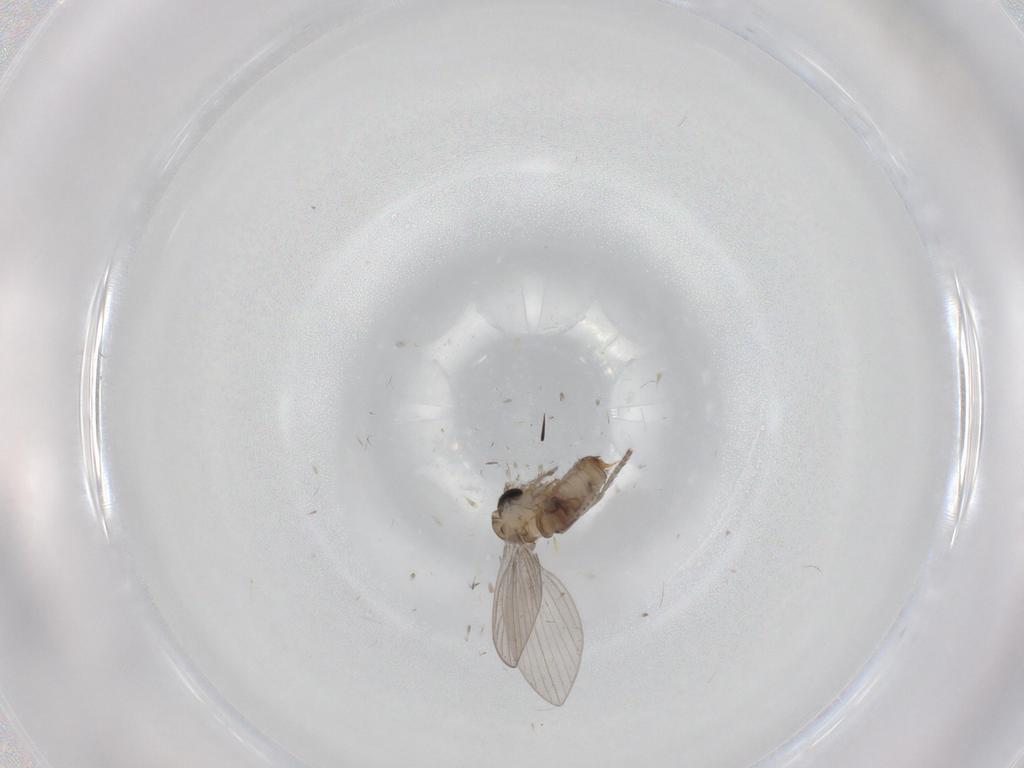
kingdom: Animalia
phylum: Arthropoda
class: Insecta
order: Diptera
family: Psychodidae
